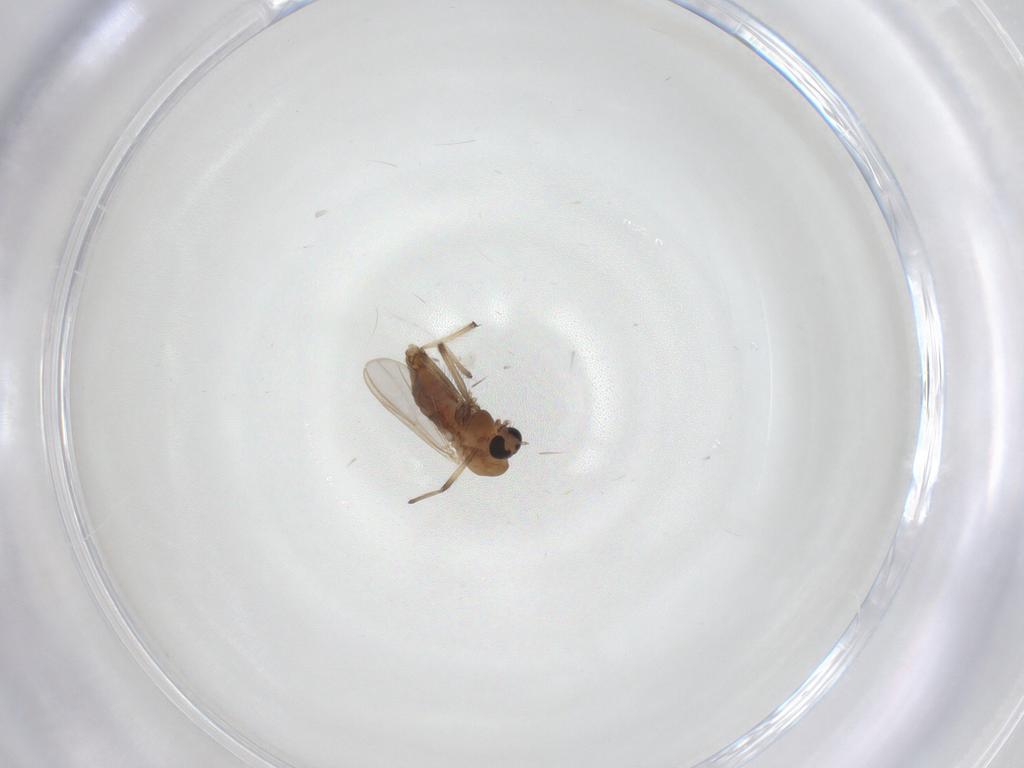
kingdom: Animalia
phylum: Arthropoda
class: Insecta
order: Diptera
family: Chironomidae
